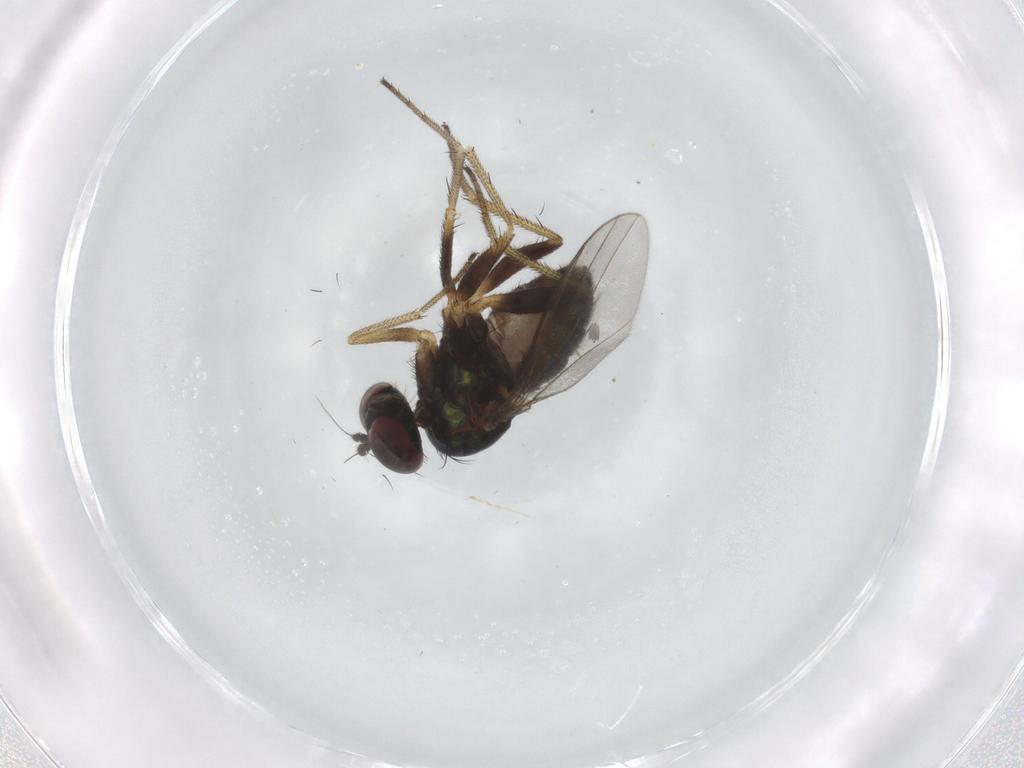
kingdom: Animalia
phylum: Arthropoda
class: Insecta
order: Diptera
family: Dolichopodidae
